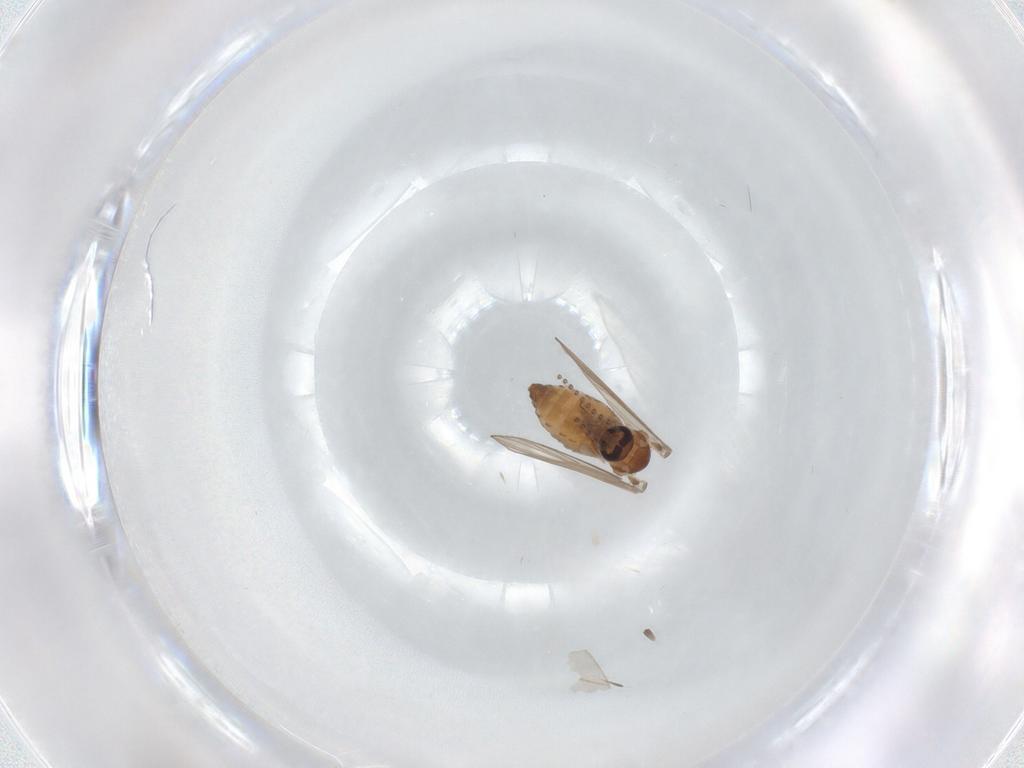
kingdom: Animalia
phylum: Arthropoda
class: Insecta
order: Diptera
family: Psychodidae
